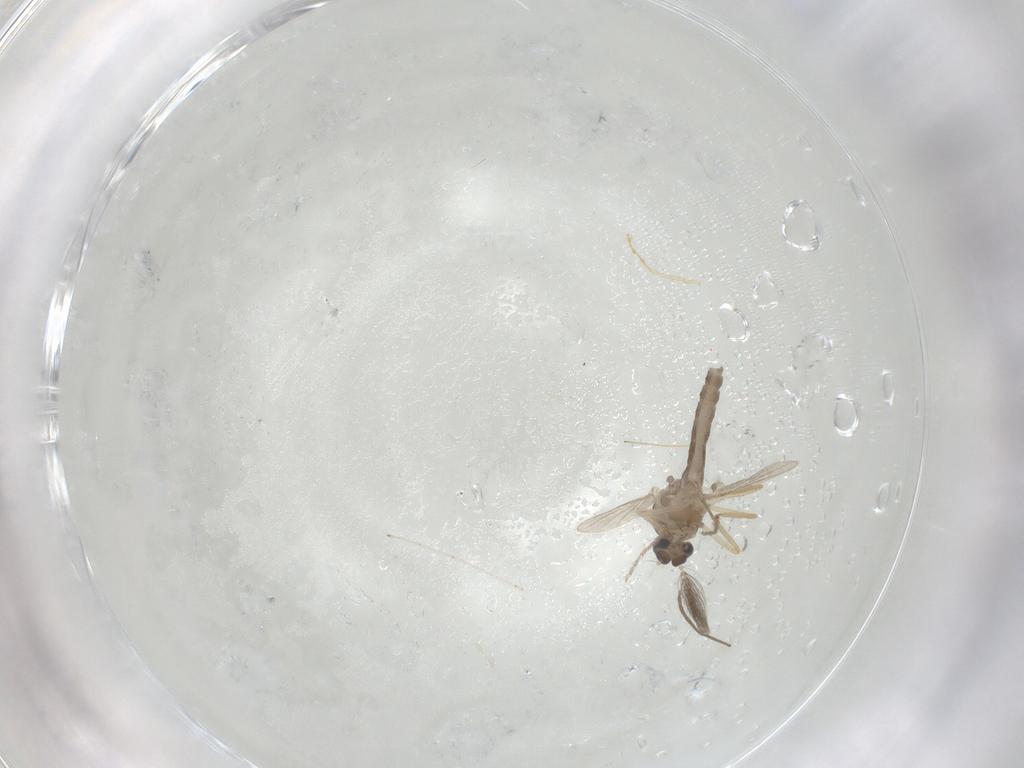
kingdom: Animalia
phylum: Arthropoda
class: Insecta
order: Diptera
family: Ceratopogonidae
